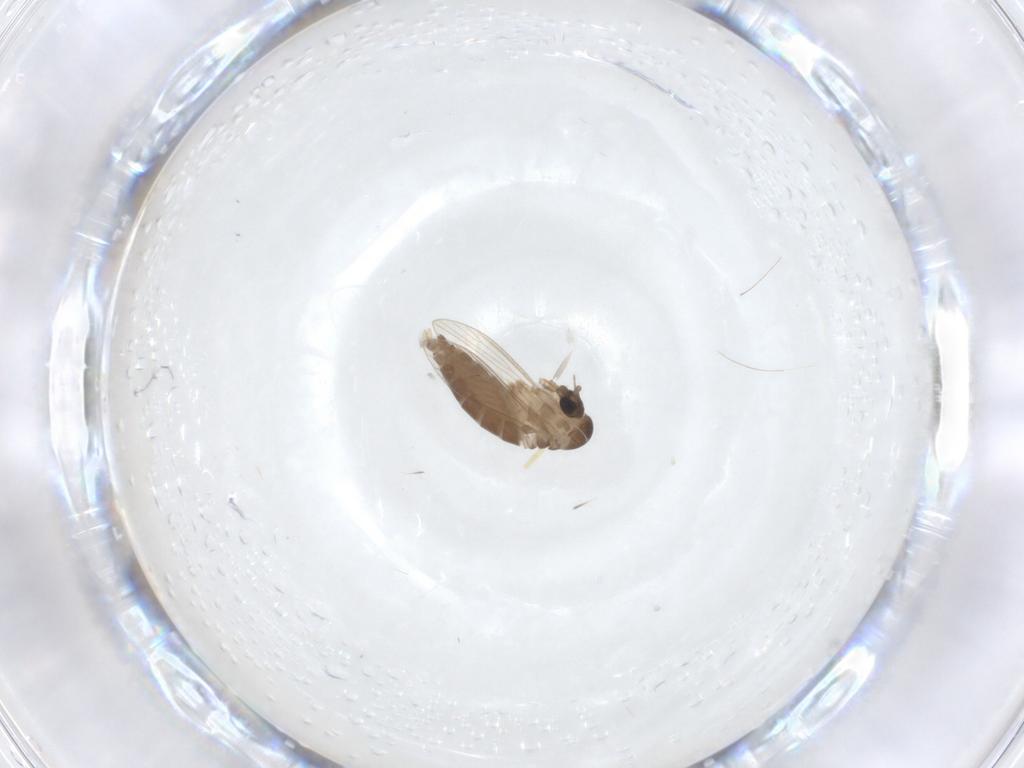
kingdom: Animalia
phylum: Arthropoda
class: Insecta
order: Diptera
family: Psychodidae
